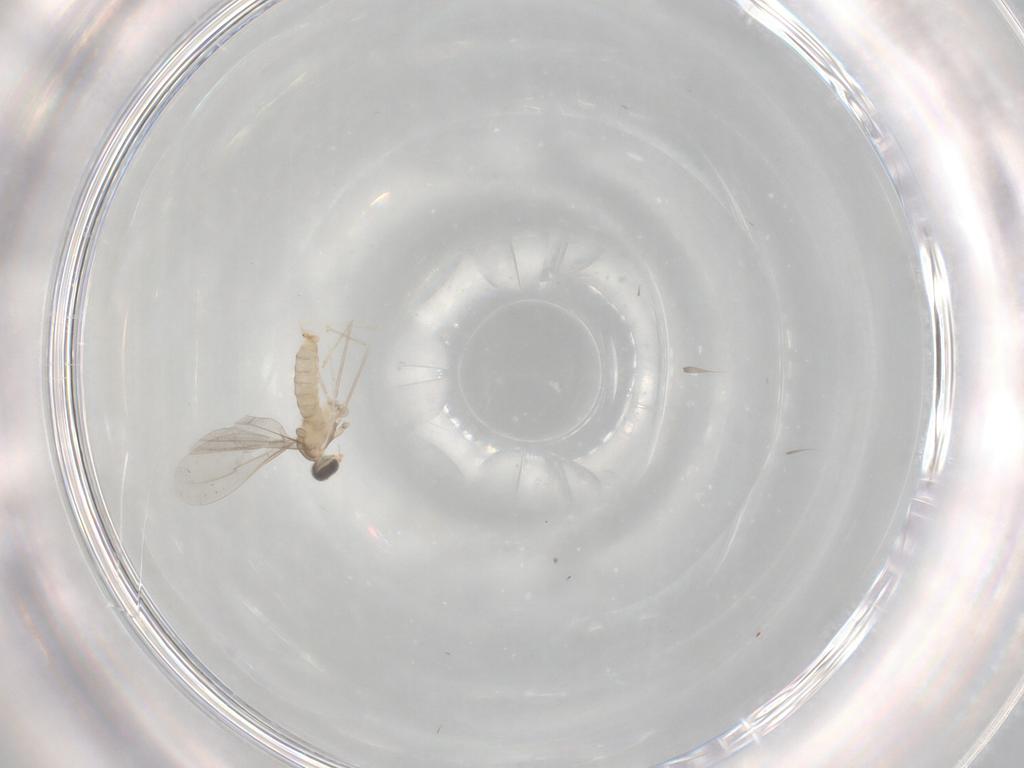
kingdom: Animalia
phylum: Arthropoda
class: Insecta
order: Diptera
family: Cecidomyiidae
